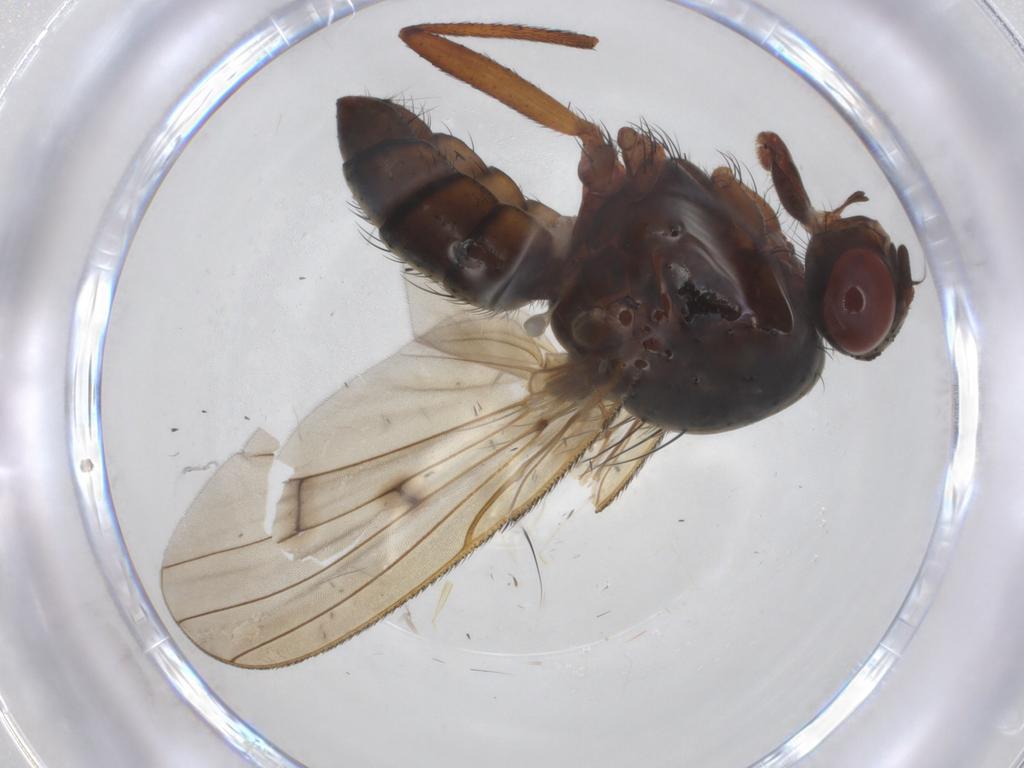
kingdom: Animalia
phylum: Arthropoda
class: Insecta
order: Diptera
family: Anthomyiidae
